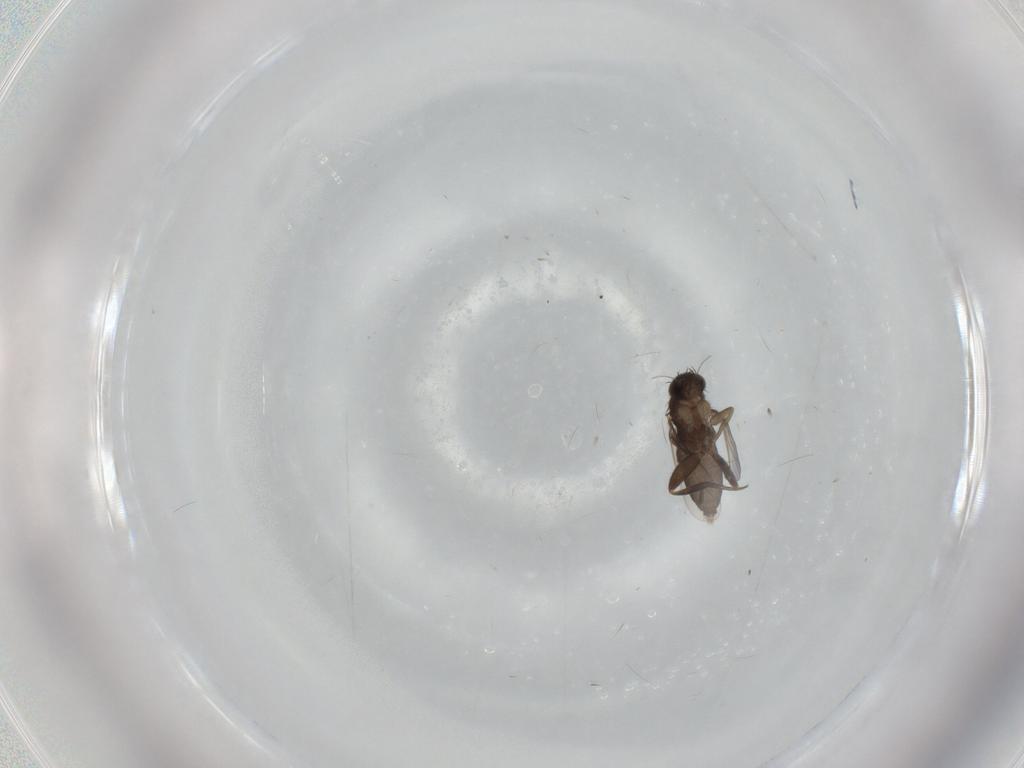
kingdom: Animalia
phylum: Arthropoda
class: Insecta
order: Diptera
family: Phoridae
